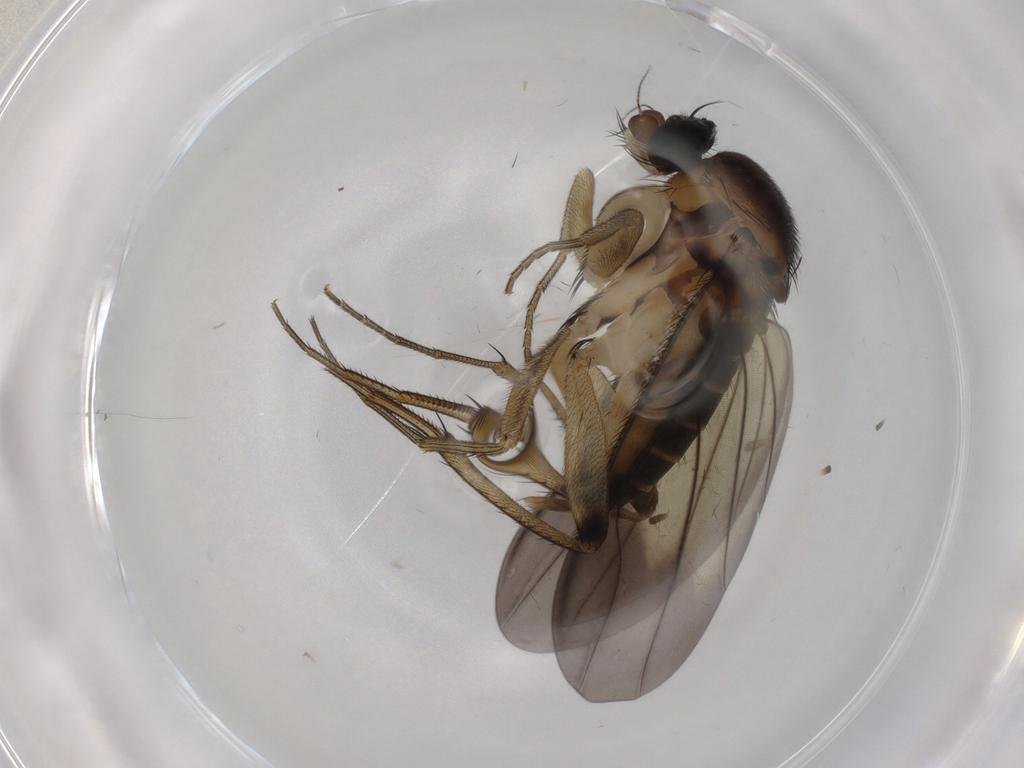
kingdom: Animalia
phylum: Arthropoda
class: Insecta
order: Diptera
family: Phoridae
